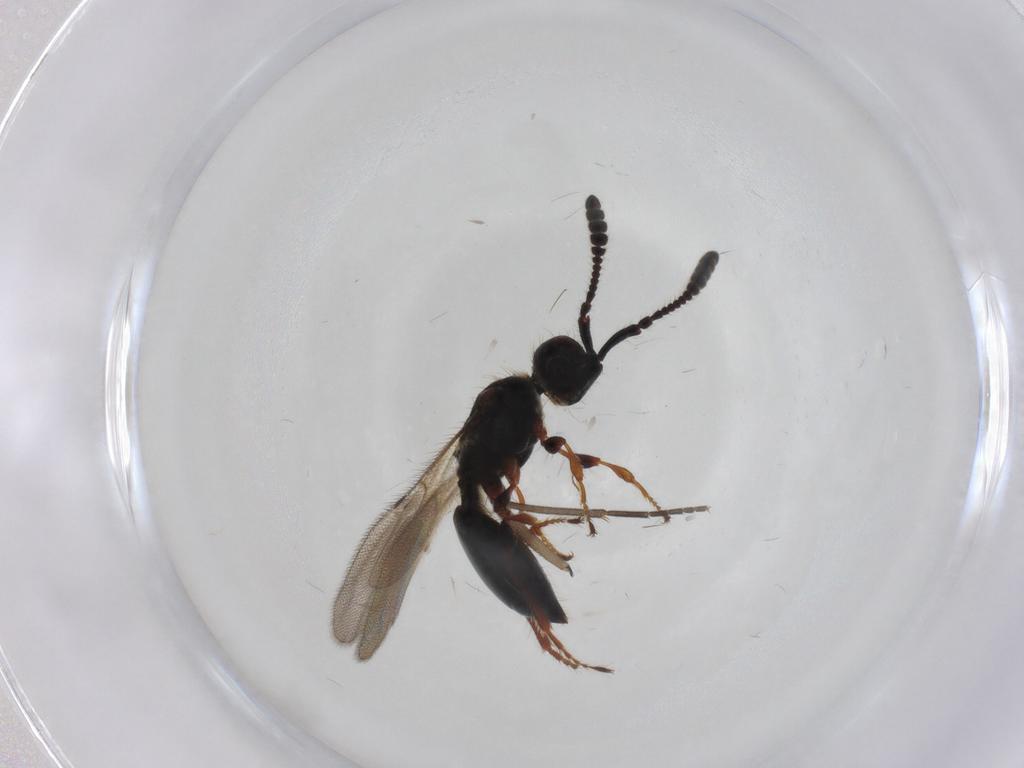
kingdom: Animalia
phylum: Arthropoda
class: Insecta
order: Hymenoptera
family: Diapriidae
